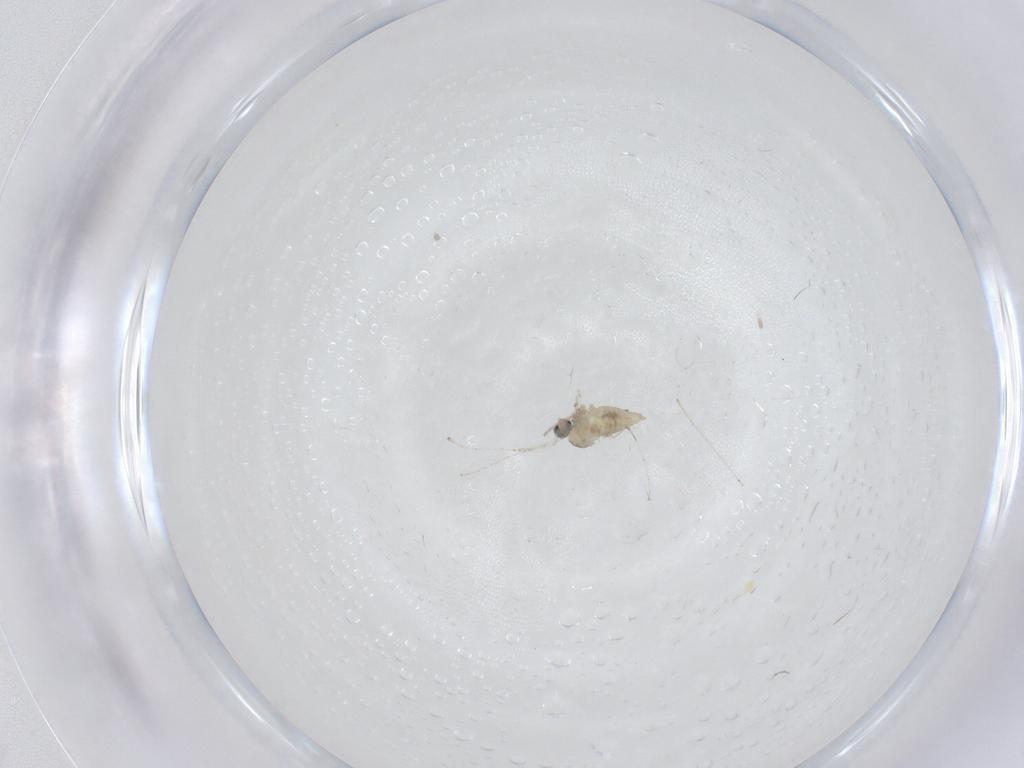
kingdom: Animalia
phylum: Arthropoda
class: Insecta
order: Diptera
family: Cecidomyiidae
